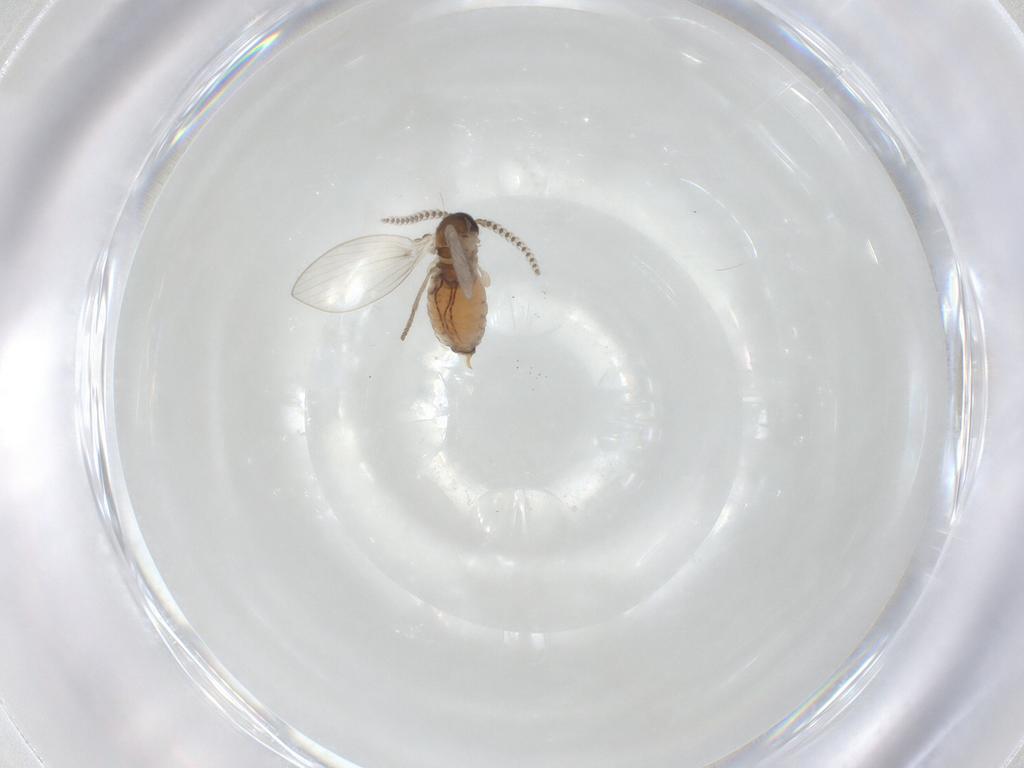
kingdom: Animalia
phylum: Arthropoda
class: Insecta
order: Diptera
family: Psychodidae
